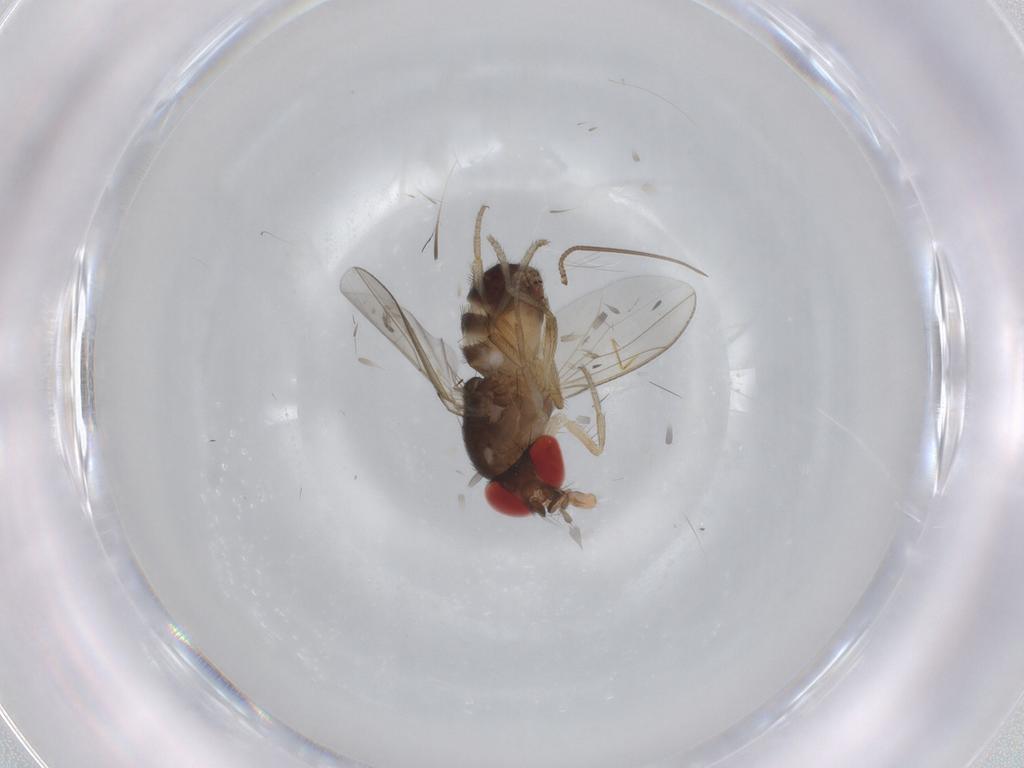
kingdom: Animalia
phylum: Arthropoda
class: Insecta
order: Diptera
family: Drosophilidae
